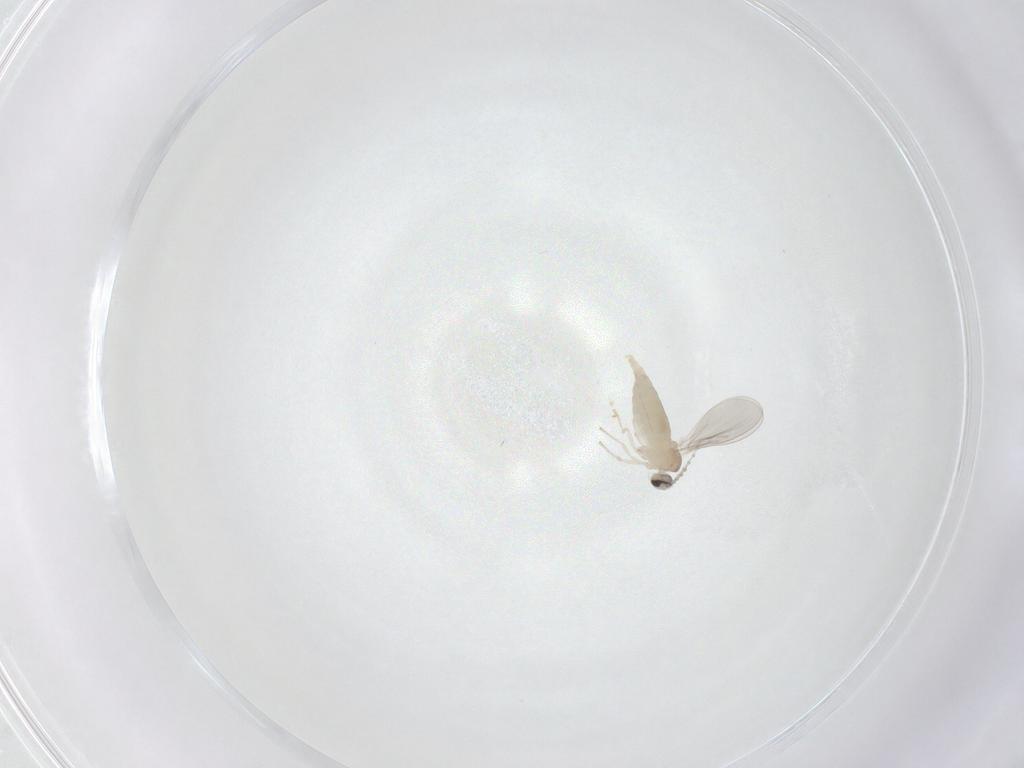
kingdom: Animalia
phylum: Arthropoda
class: Insecta
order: Diptera
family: Cecidomyiidae
